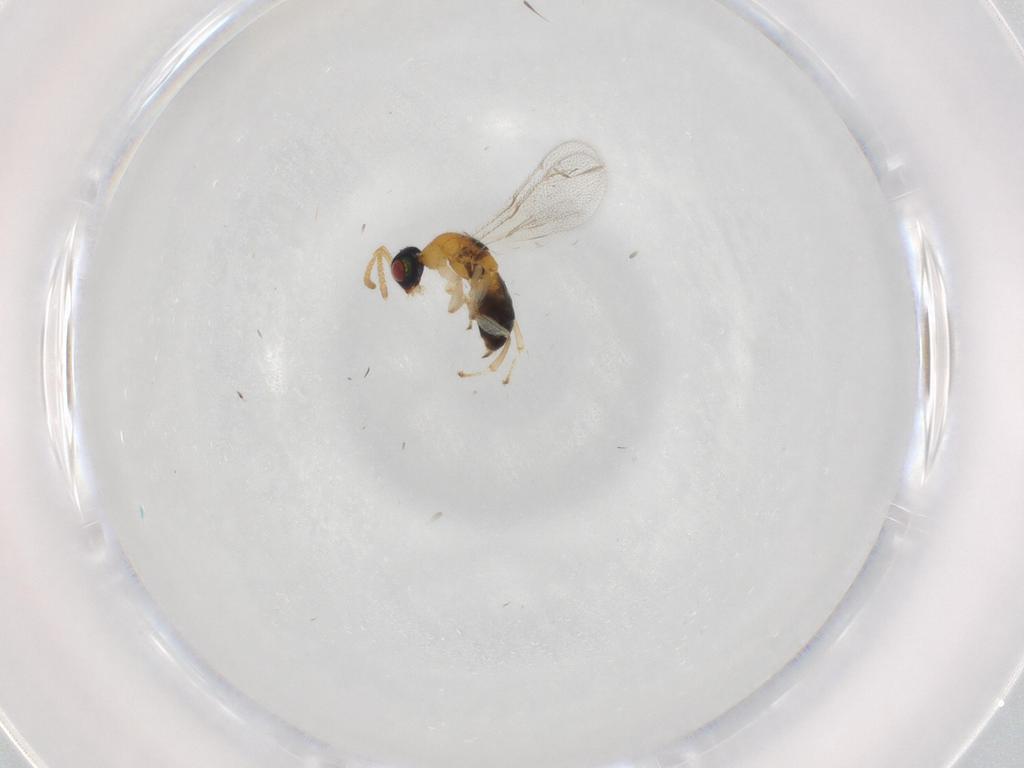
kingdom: Animalia
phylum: Arthropoda
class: Insecta
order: Hymenoptera
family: Torymidae
